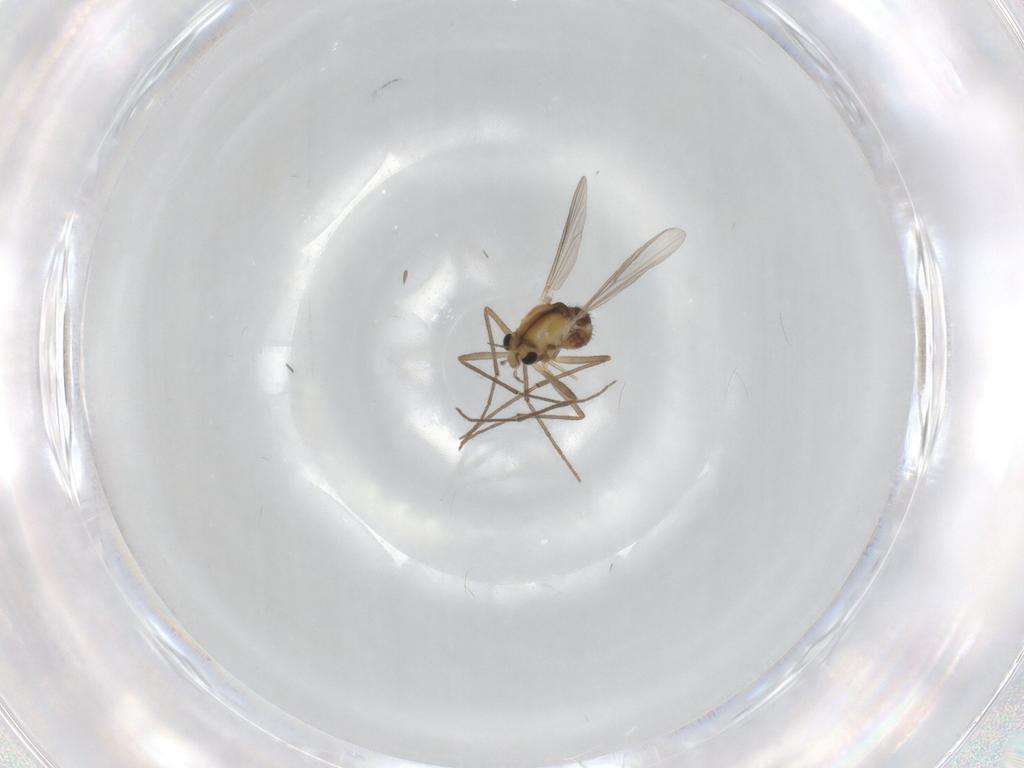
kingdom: Animalia
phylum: Arthropoda
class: Insecta
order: Diptera
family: Chironomidae
